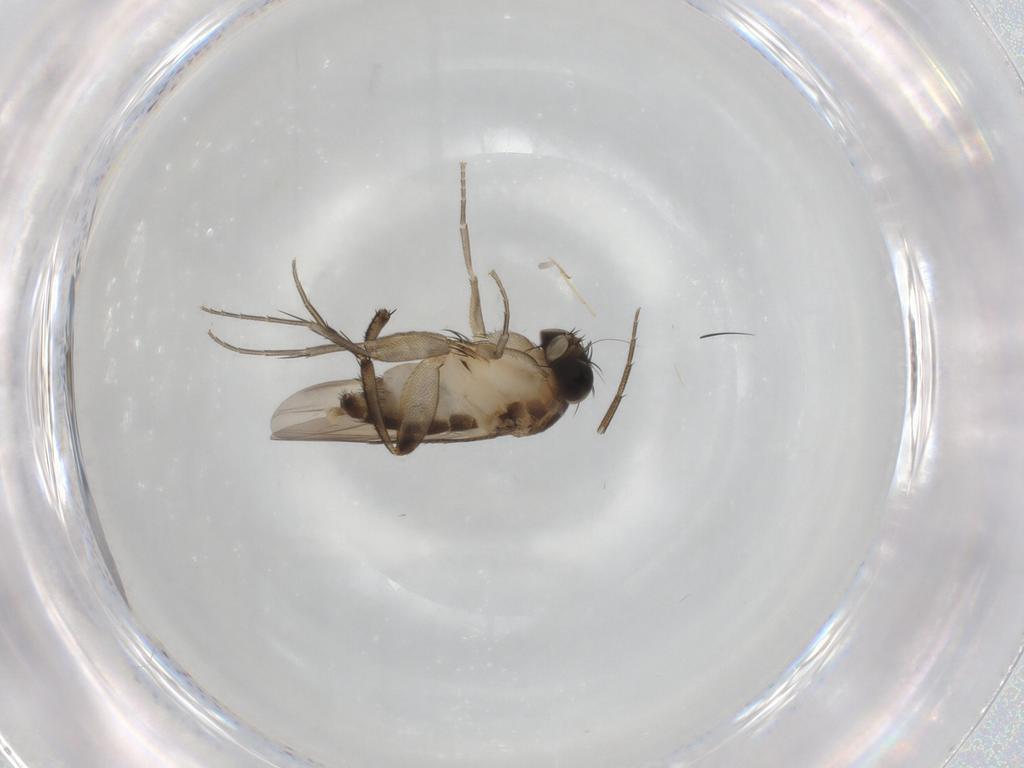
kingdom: Animalia
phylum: Arthropoda
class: Insecta
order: Diptera
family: Phoridae
